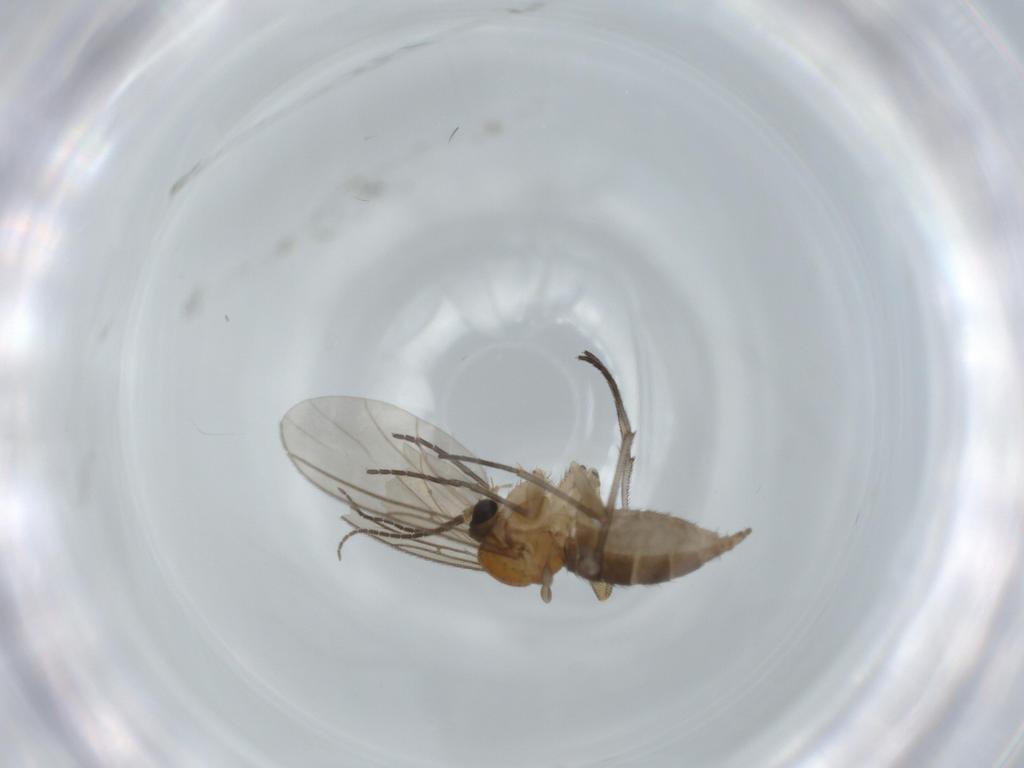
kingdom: Animalia
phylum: Arthropoda
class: Insecta
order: Diptera
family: Sciaridae
